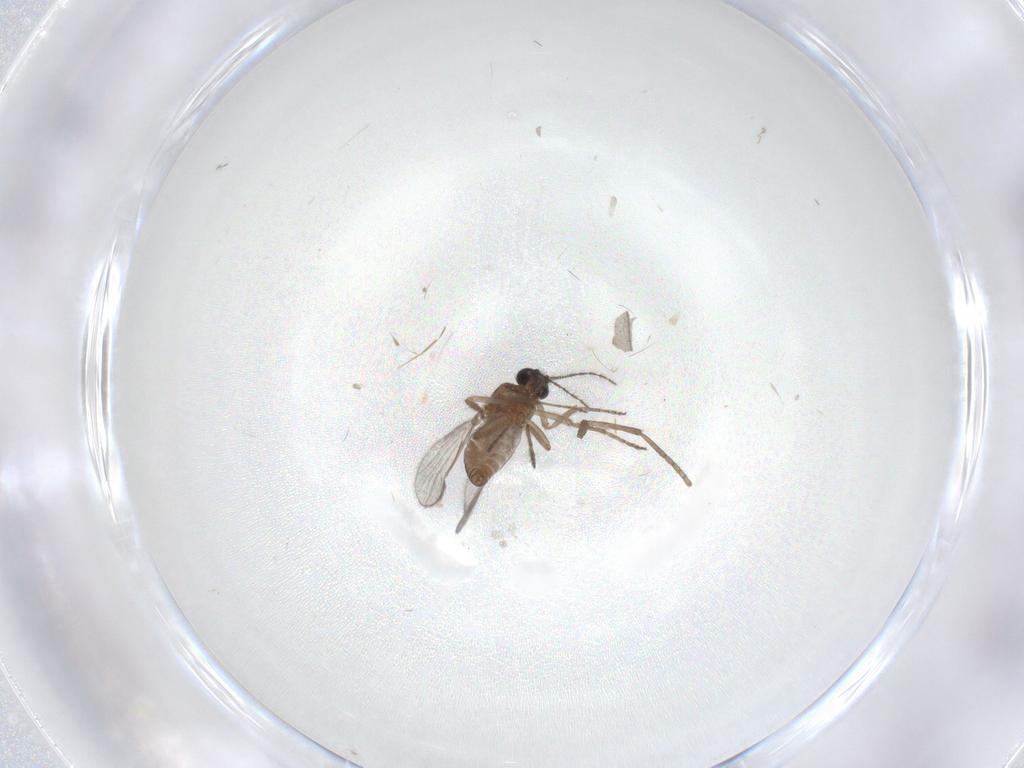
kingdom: Animalia
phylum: Arthropoda
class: Insecta
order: Diptera
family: Ceratopogonidae
